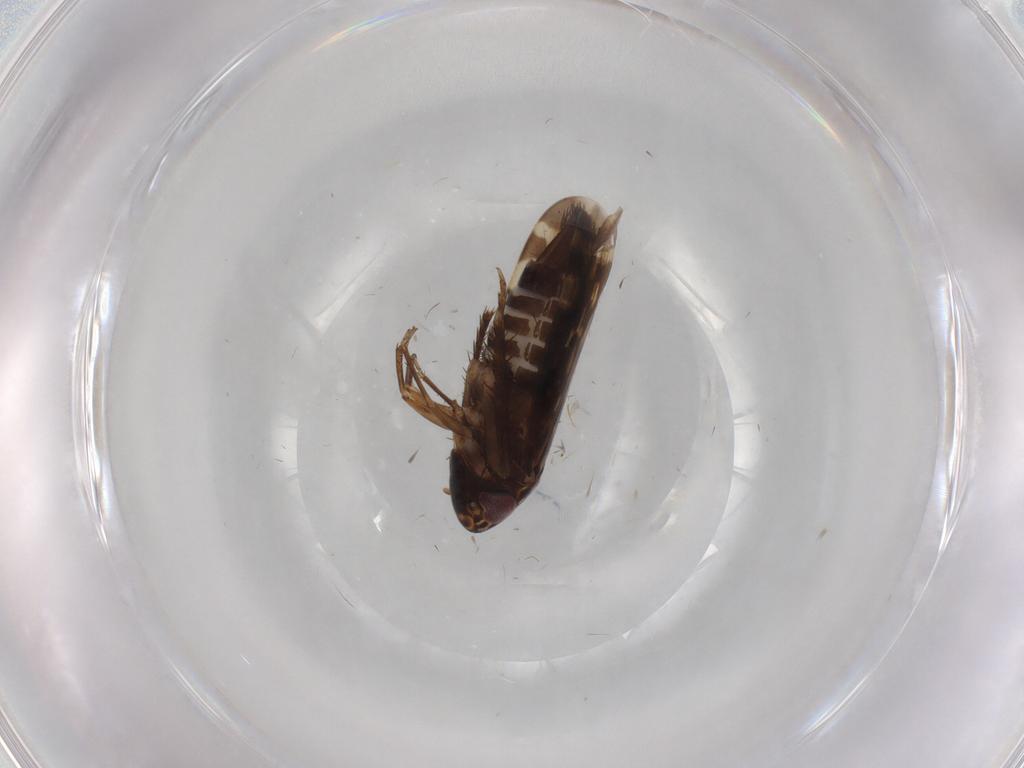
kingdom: Animalia
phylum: Arthropoda
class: Insecta
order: Hemiptera
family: Cicadellidae
